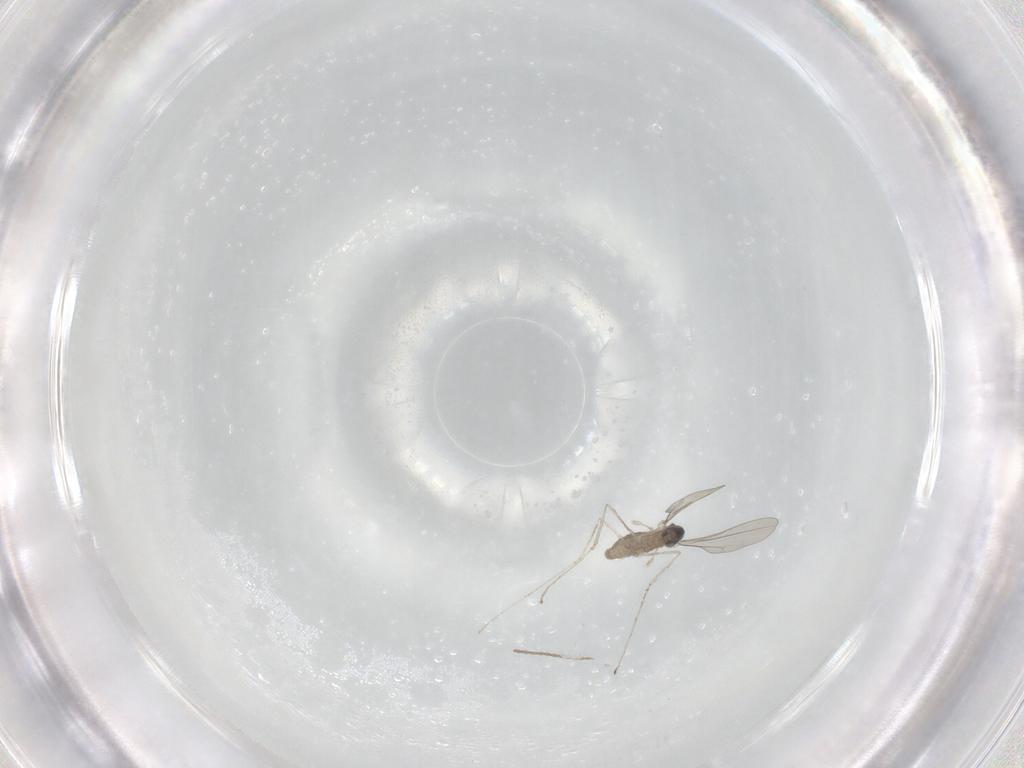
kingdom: Animalia
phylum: Arthropoda
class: Insecta
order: Diptera
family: Cecidomyiidae
